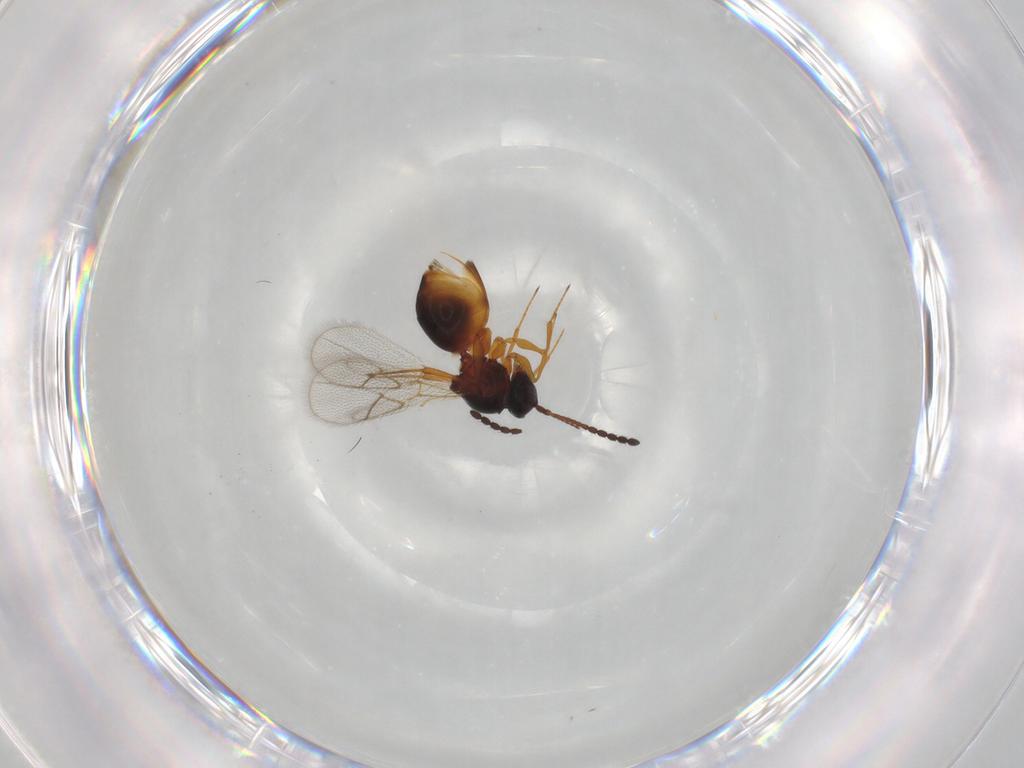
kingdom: Animalia
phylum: Arthropoda
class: Insecta
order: Hymenoptera
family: Figitidae
